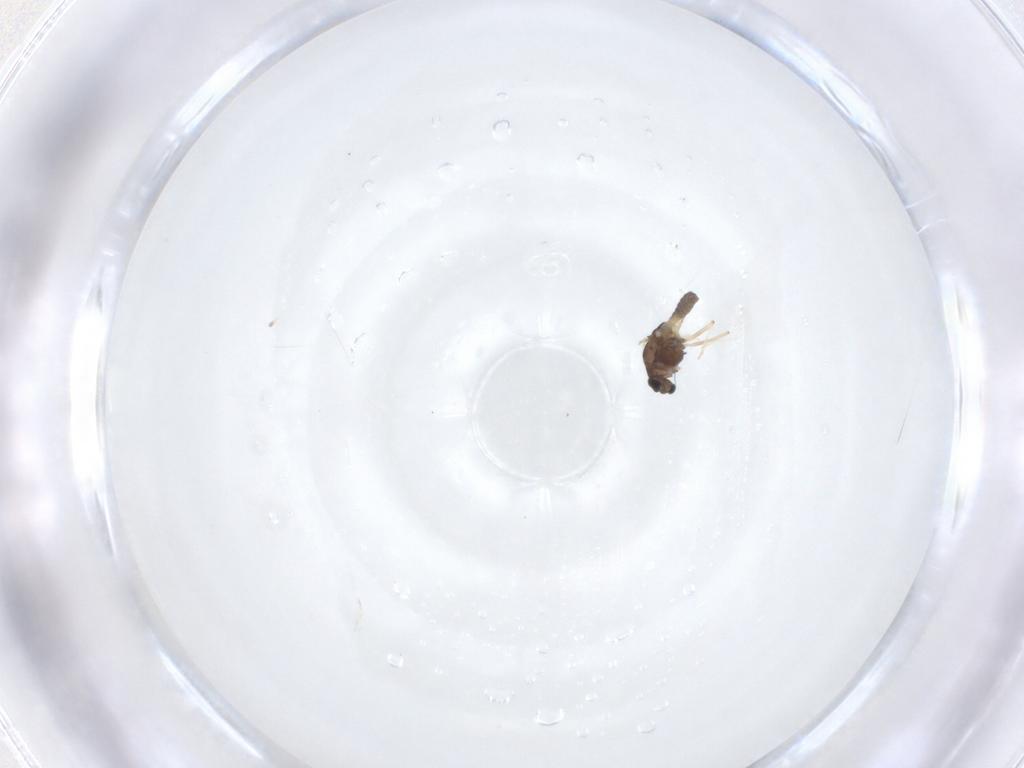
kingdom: Animalia
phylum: Arthropoda
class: Insecta
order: Diptera
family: Chironomidae
